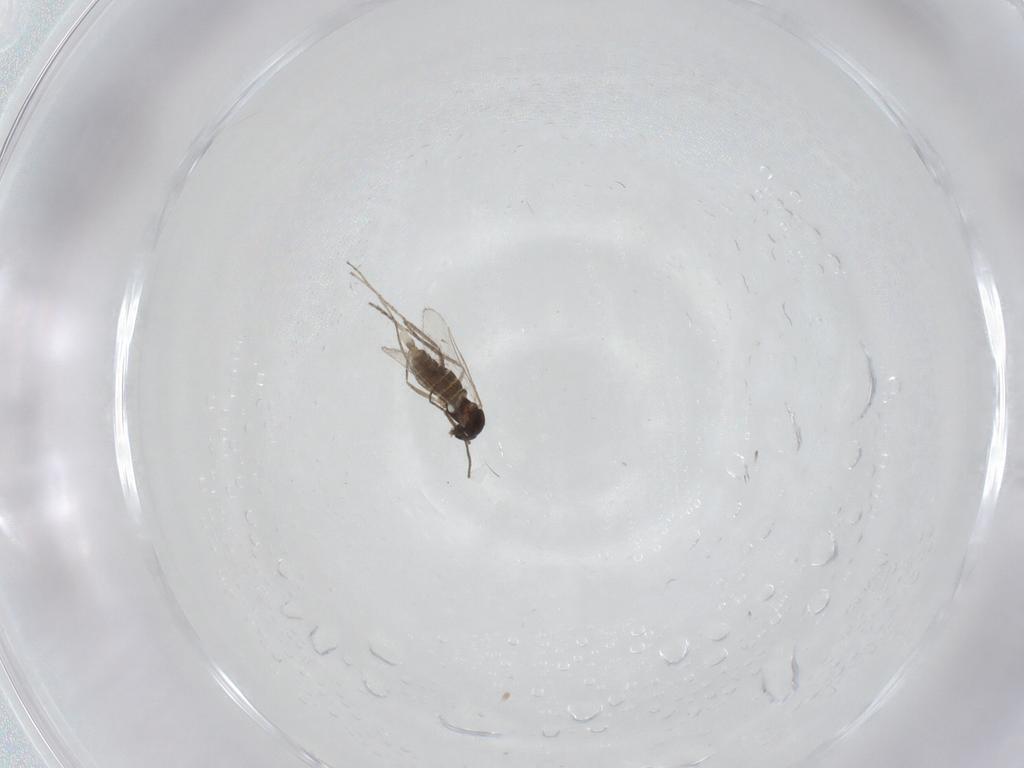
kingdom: Animalia
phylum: Arthropoda
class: Insecta
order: Diptera
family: Cecidomyiidae
